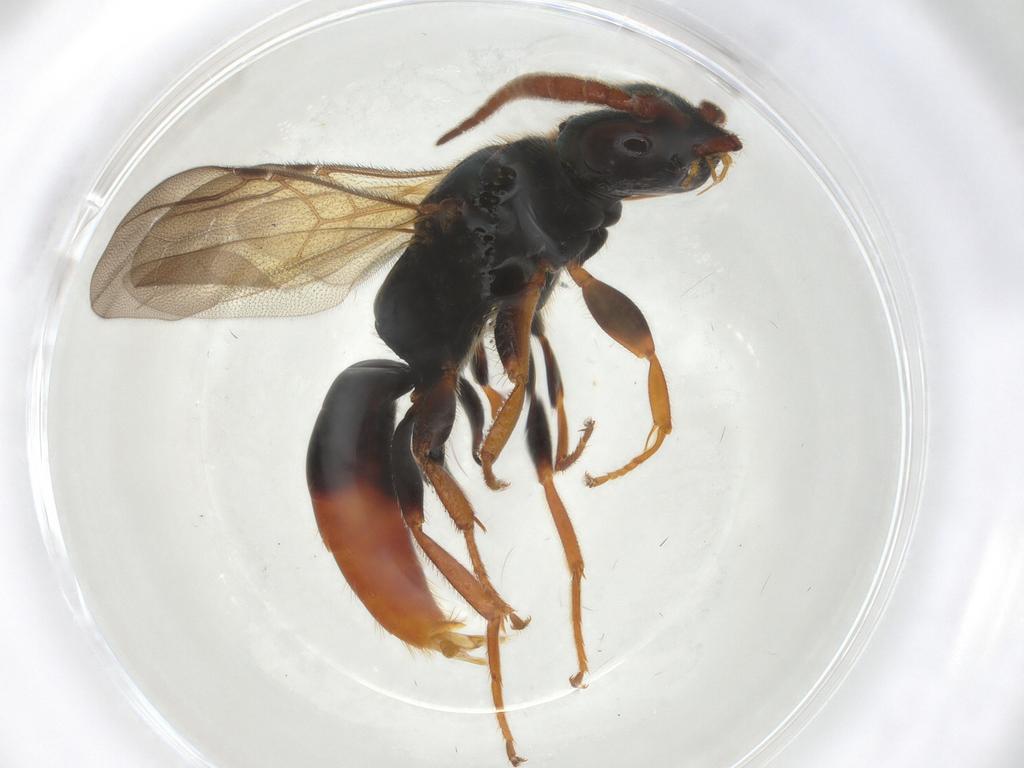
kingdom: Animalia
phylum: Arthropoda
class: Insecta
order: Hymenoptera
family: Bethylidae
